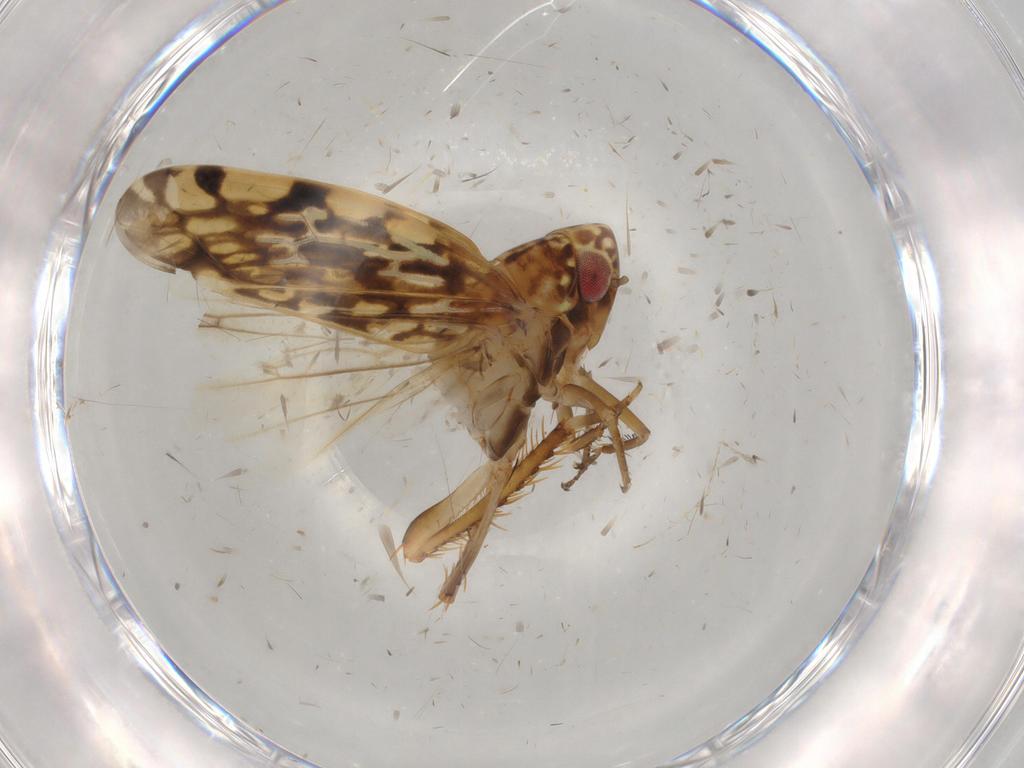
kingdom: Animalia
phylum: Arthropoda
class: Insecta
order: Hemiptera
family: Cicadellidae
